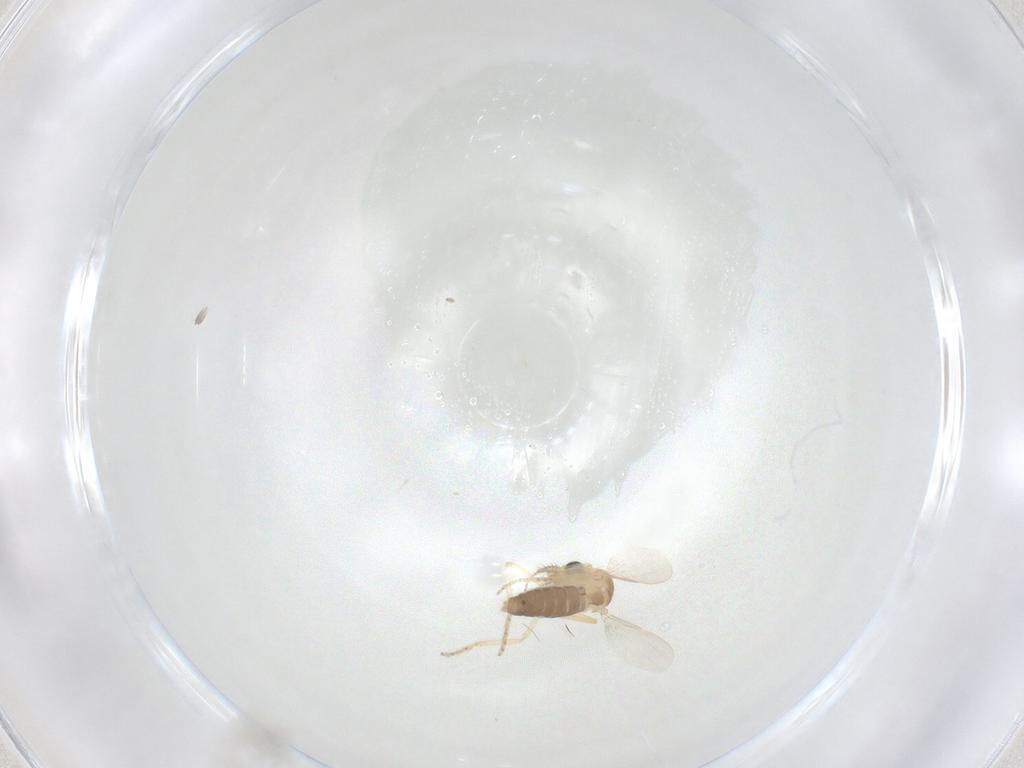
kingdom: Animalia
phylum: Arthropoda
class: Insecta
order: Diptera
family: Ceratopogonidae
